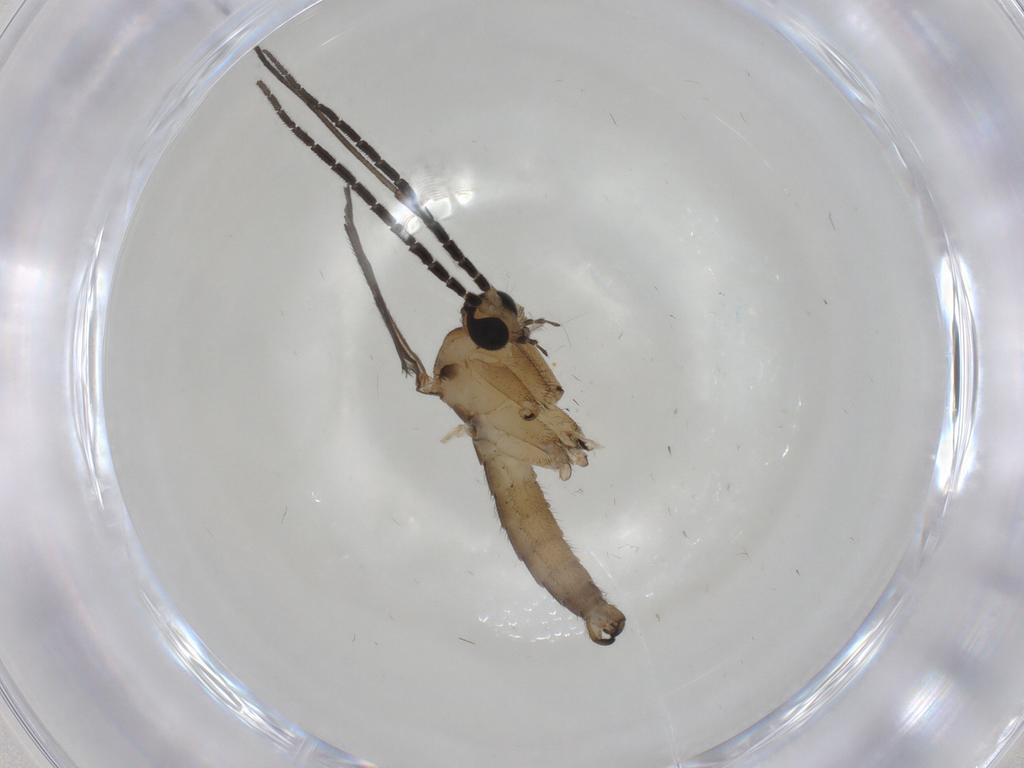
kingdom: Animalia
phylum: Arthropoda
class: Insecta
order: Diptera
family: Sciaridae
